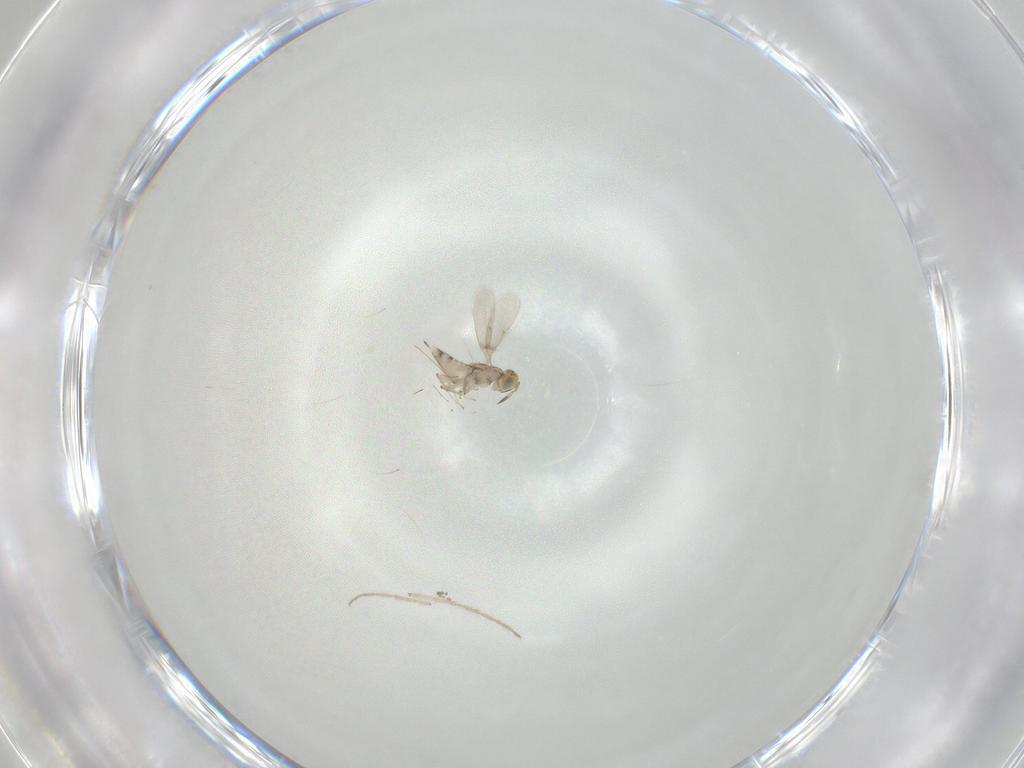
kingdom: Animalia
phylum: Arthropoda
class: Insecta
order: Hymenoptera
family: Aphelinidae
